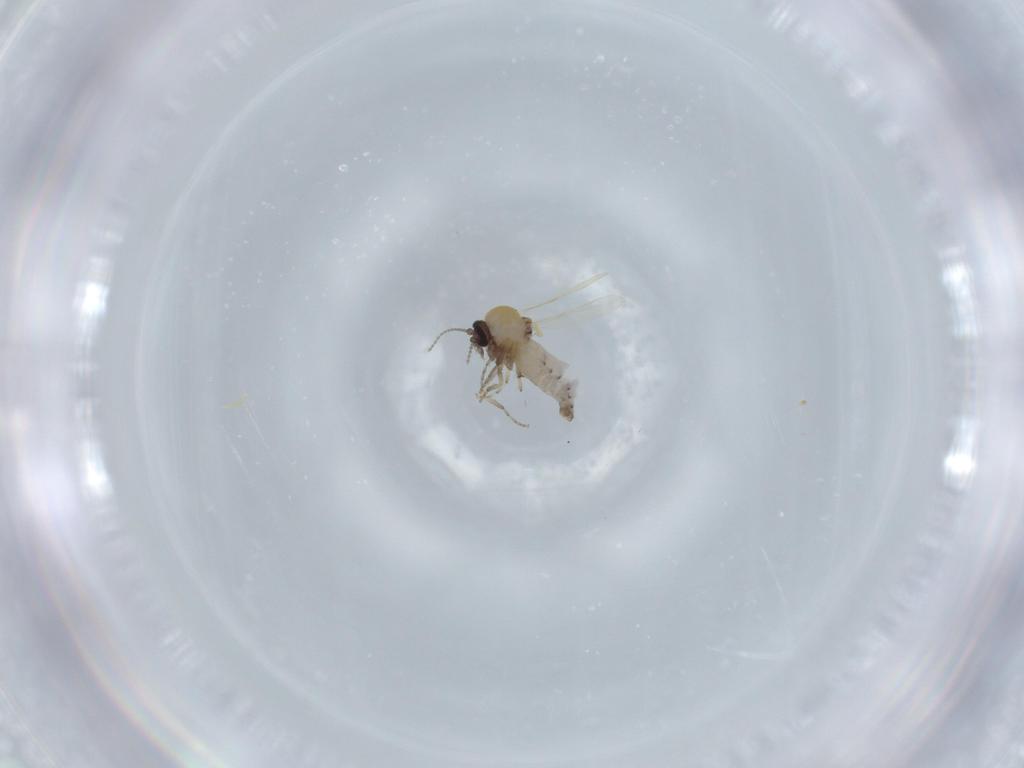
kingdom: Animalia
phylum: Arthropoda
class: Insecta
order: Diptera
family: Ceratopogonidae
